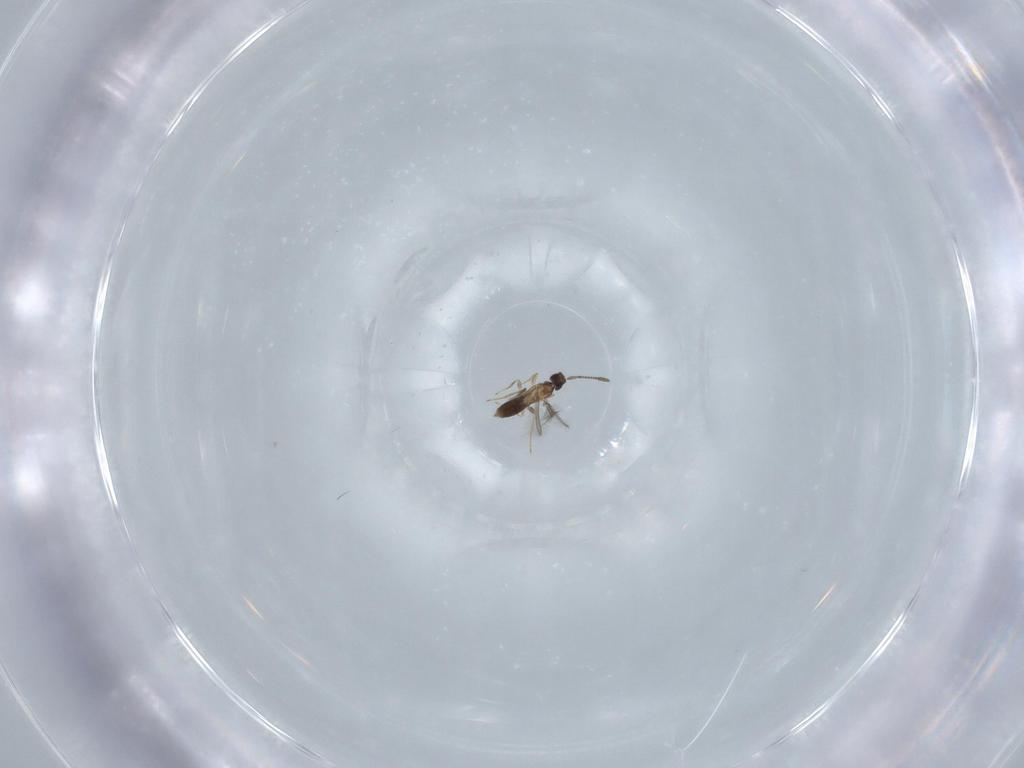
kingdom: Animalia
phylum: Arthropoda
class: Insecta
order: Hymenoptera
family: Mymaridae
